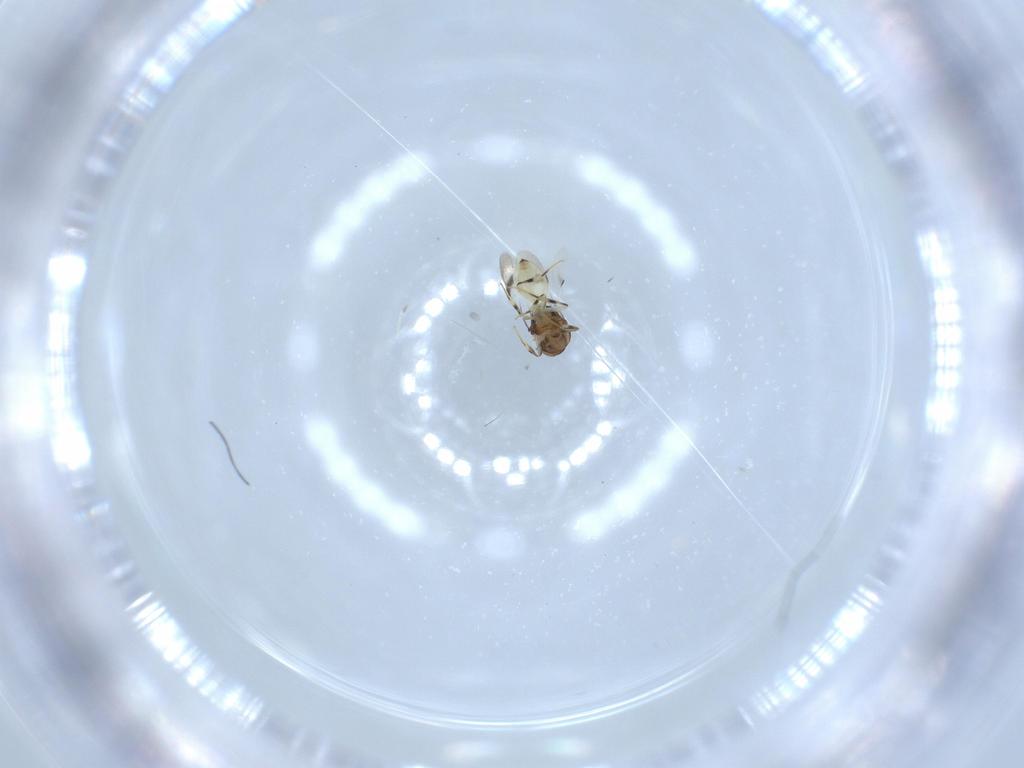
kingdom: Animalia
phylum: Arthropoda
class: Insecta
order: Hymenoptera
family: Scelionidae
